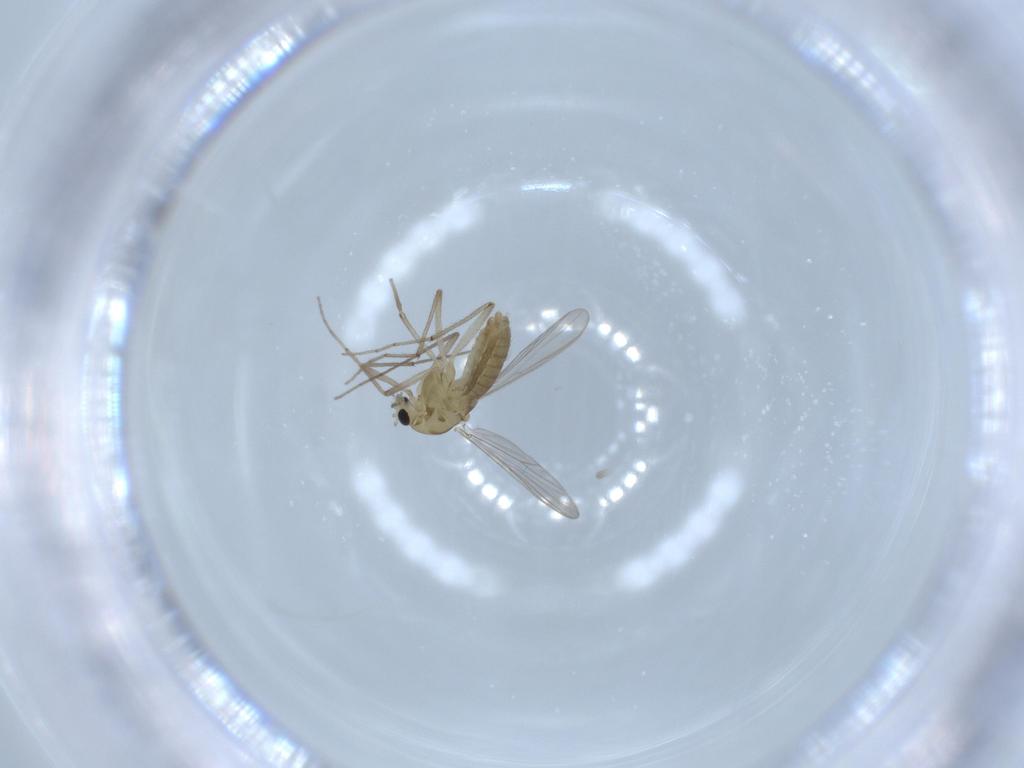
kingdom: Animalia
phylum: Arthropoda
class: Insecta
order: Diptera
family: Chironomidae
